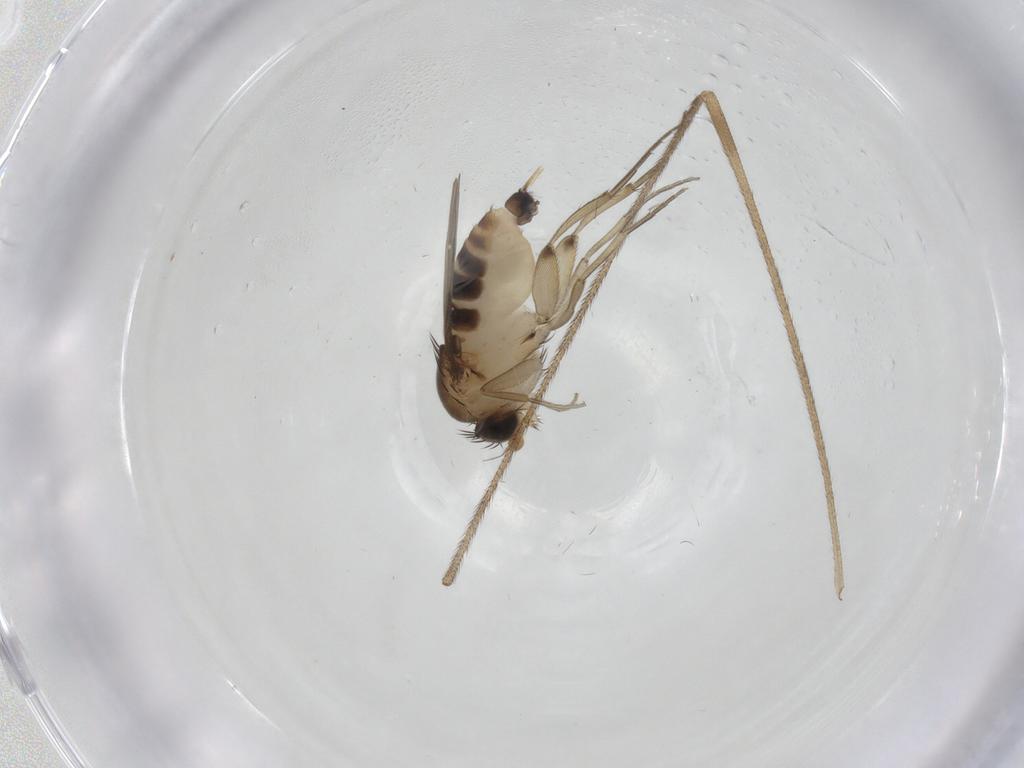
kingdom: Animalia
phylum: Arthropoda
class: Insecta
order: Diptera
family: Phoridae
